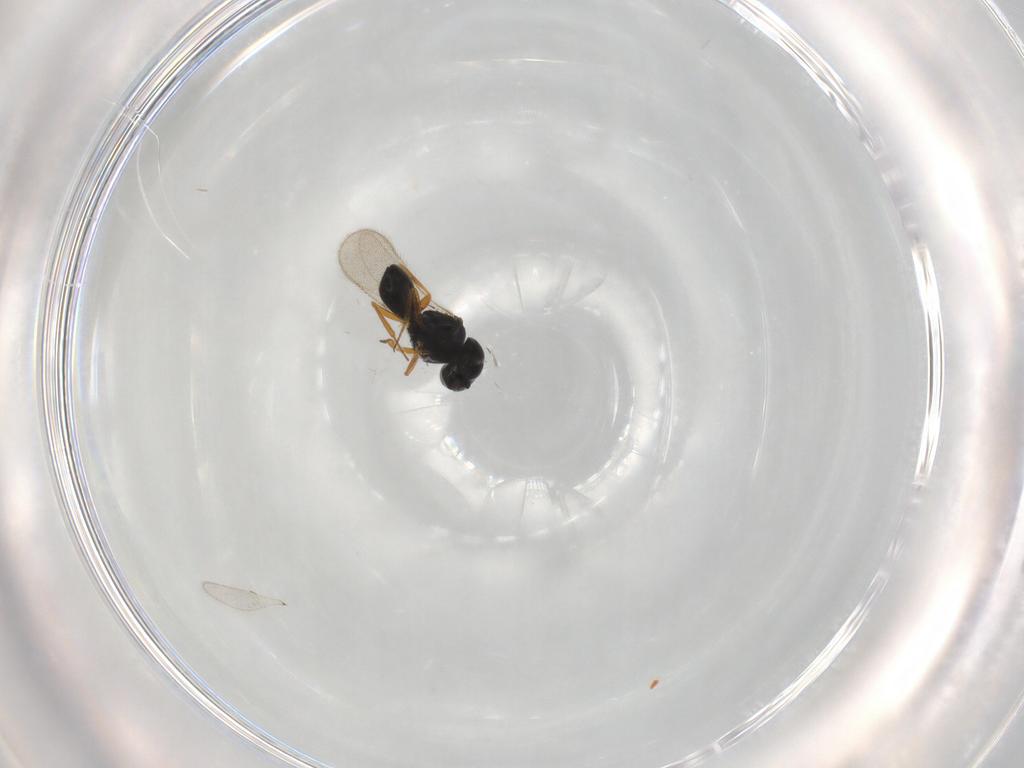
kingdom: Animalia
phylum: Arthropoda
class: Insecta
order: Hymenoptera
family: Scelionidae
